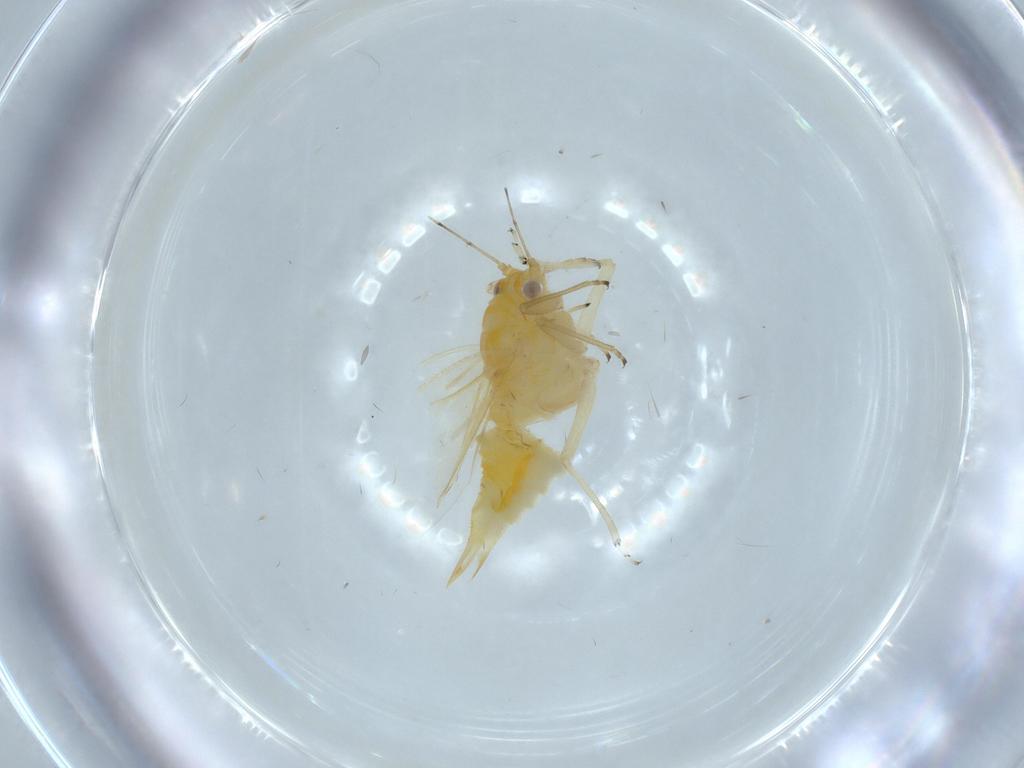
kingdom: Animalia
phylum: Arthropoda
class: Insecta
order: Hemiptera
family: Psyllidae
